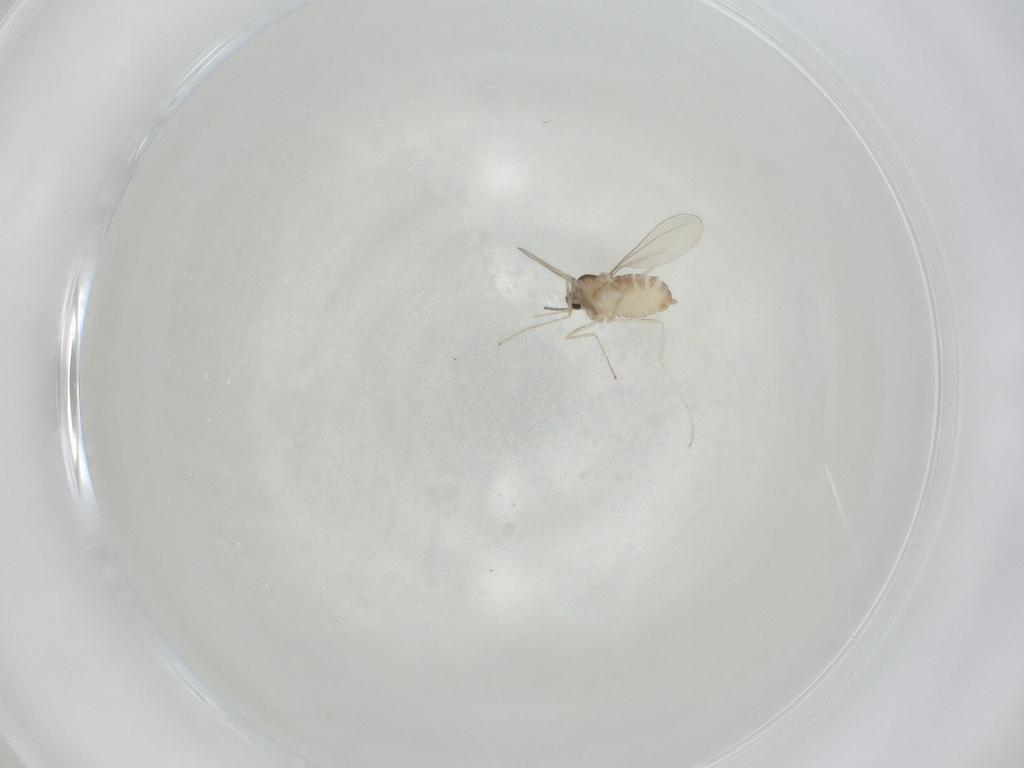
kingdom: Animalia
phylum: Arthropoda
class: Insecta
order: Diptera
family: Cecidomyiidae
